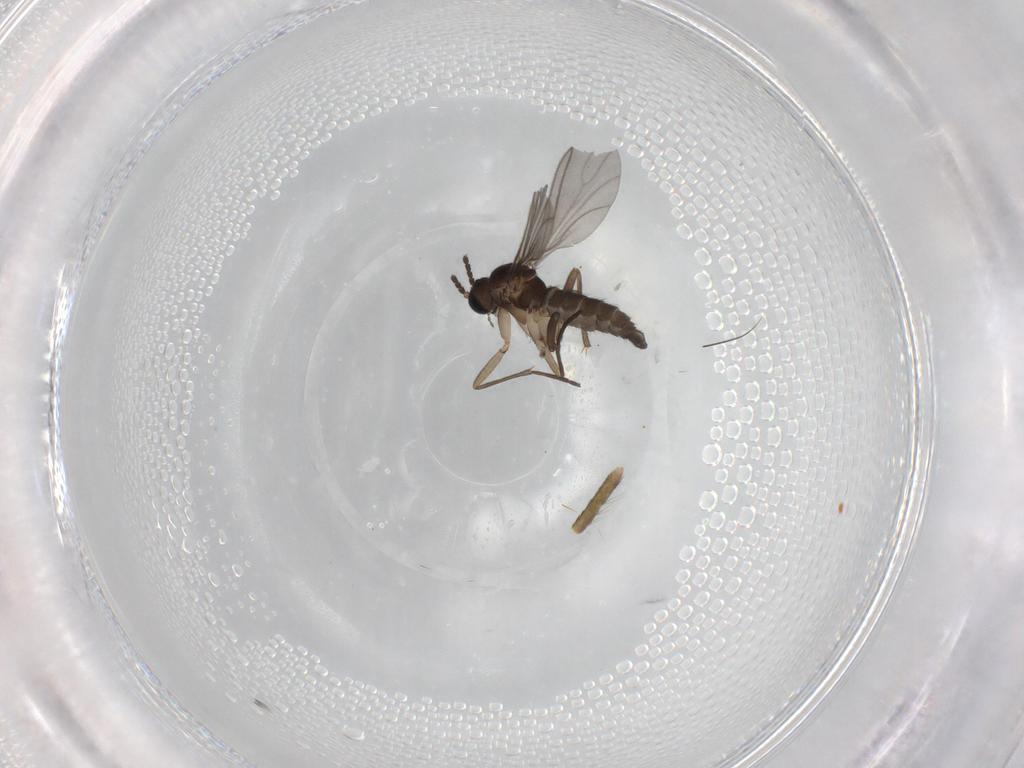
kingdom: Animalia
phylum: Arthropoda
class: Insecta
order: Diptera
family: Sciaridae
